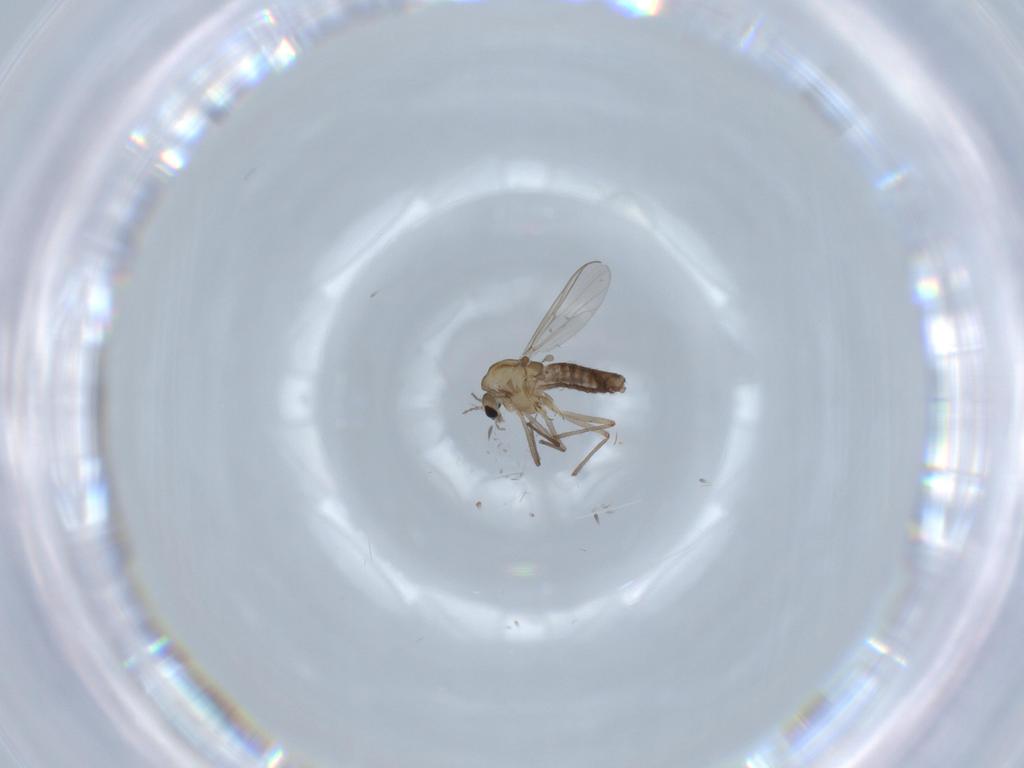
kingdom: Animalia
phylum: Arthropoda
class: Insecta
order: Diptera
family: Chironomidae
